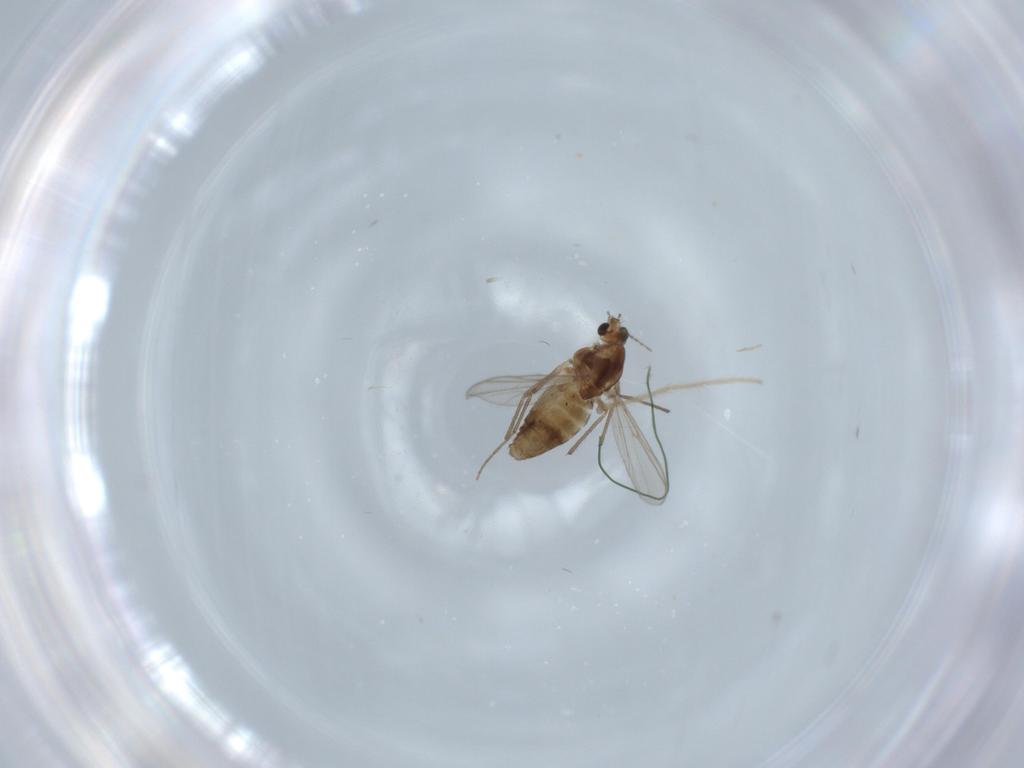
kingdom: Animalia
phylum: Arthropoda
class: Insecta
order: Diptera
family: Chironomidae
